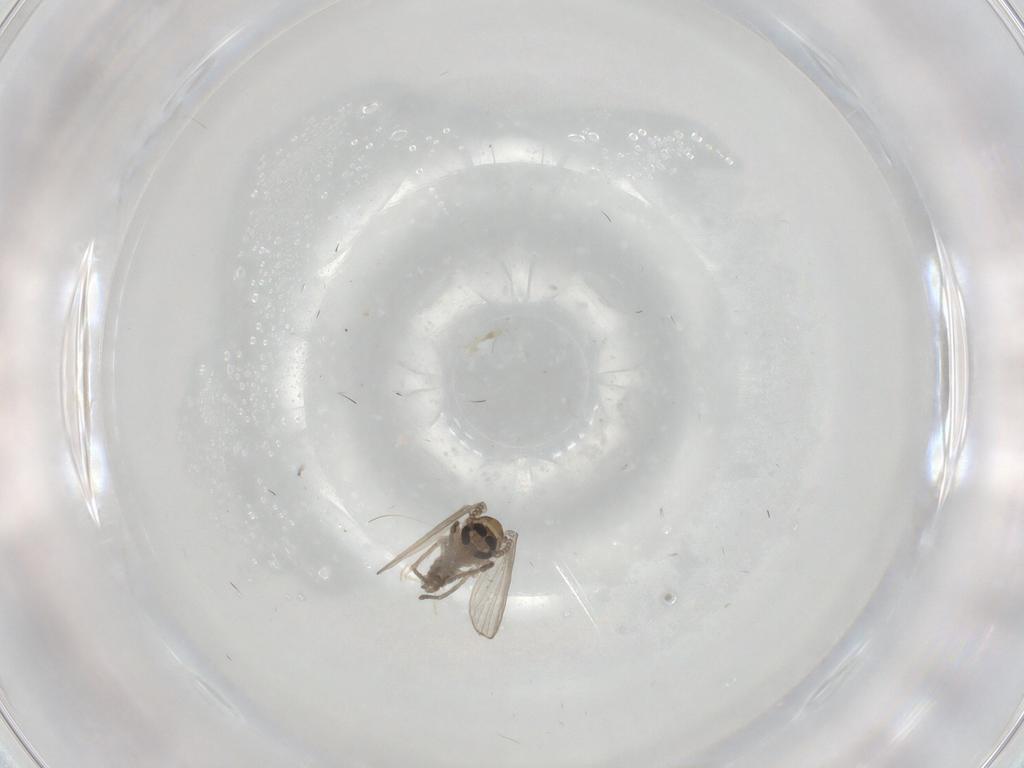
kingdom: Animalia
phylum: Arthropoda
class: Insecta
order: Diptera
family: Psychodidae
